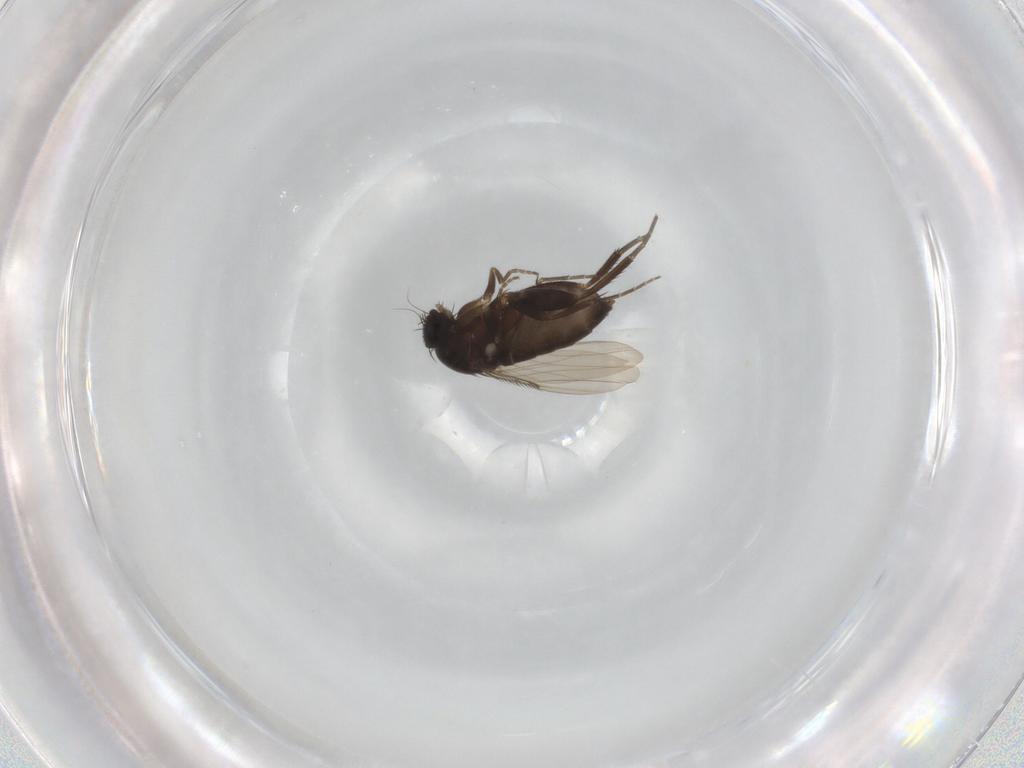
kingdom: Animalia
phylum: Arthropoda
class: Insecta
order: Diptera
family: Phoridae
